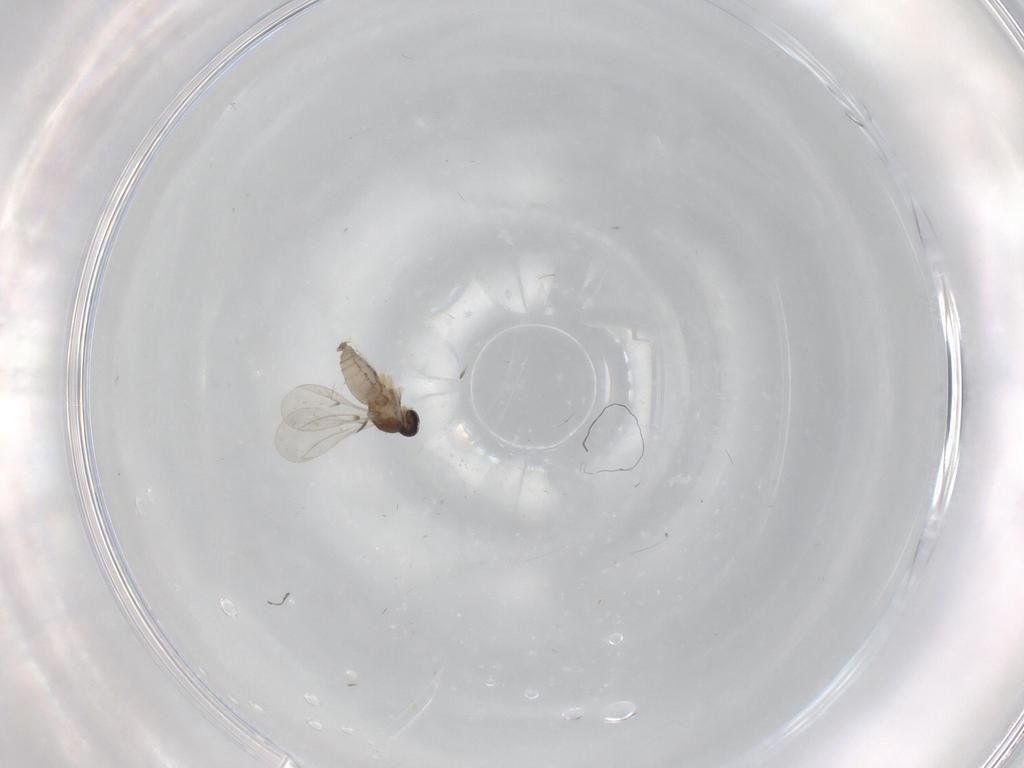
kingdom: Animalia
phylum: Arthropoda
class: Insecta
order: Diptera
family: Cecidomyiidae
